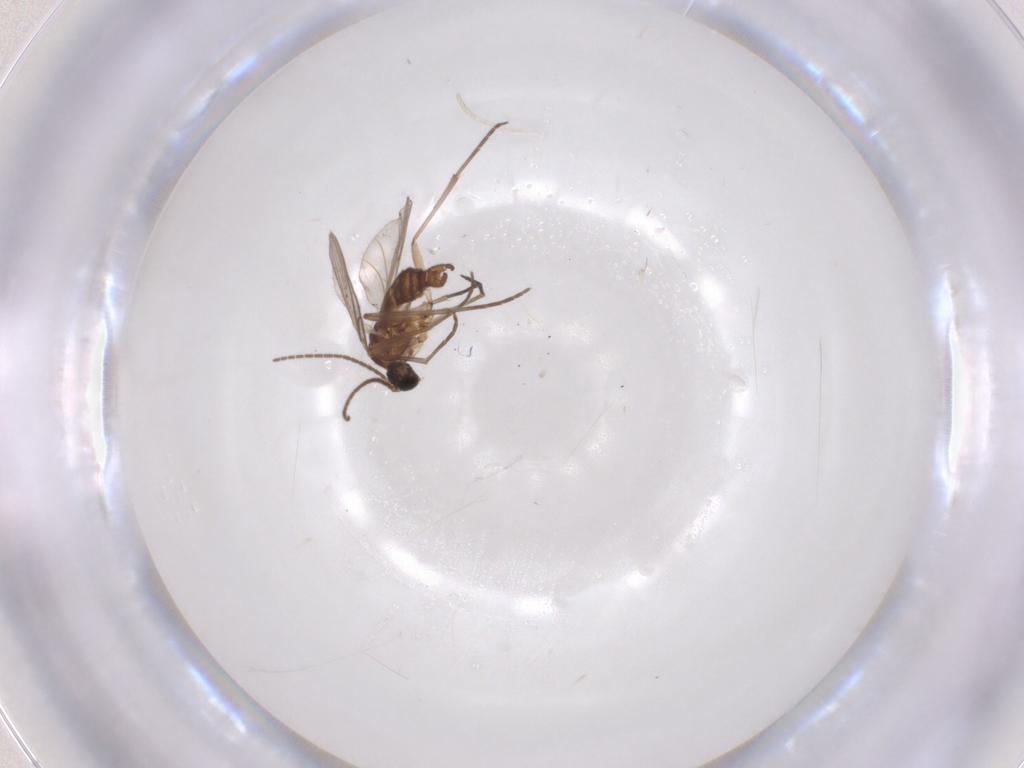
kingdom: Animalia
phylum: Arthropoda
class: Insecta
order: Diptera
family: Sciaridae
